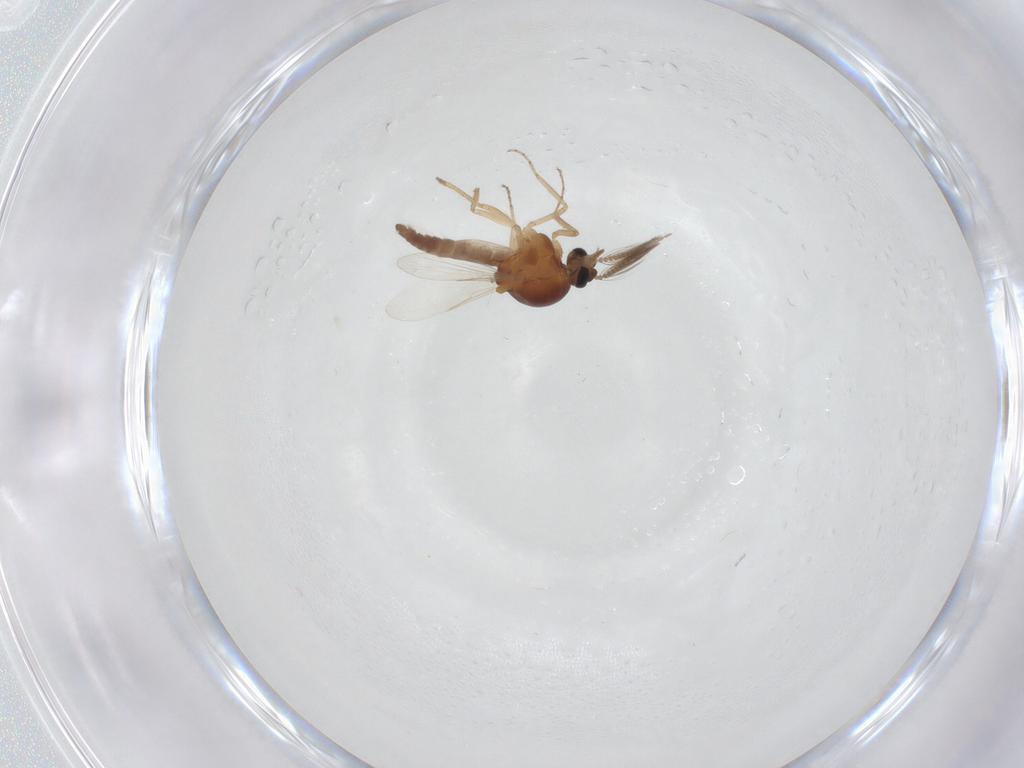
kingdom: Animalia
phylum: Arthropoda
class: Insecta
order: Diptera
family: Ceratopogonidae
